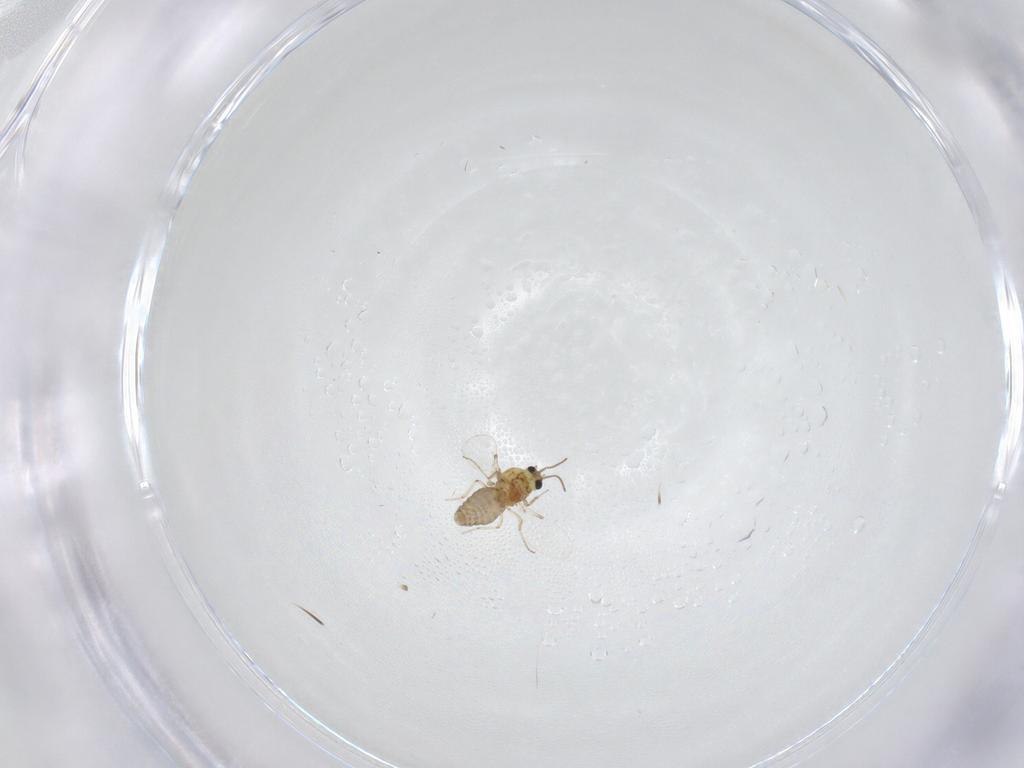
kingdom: Animalia
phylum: Arthropoda
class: Insecta
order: Diptera
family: Ceratopogonidae
